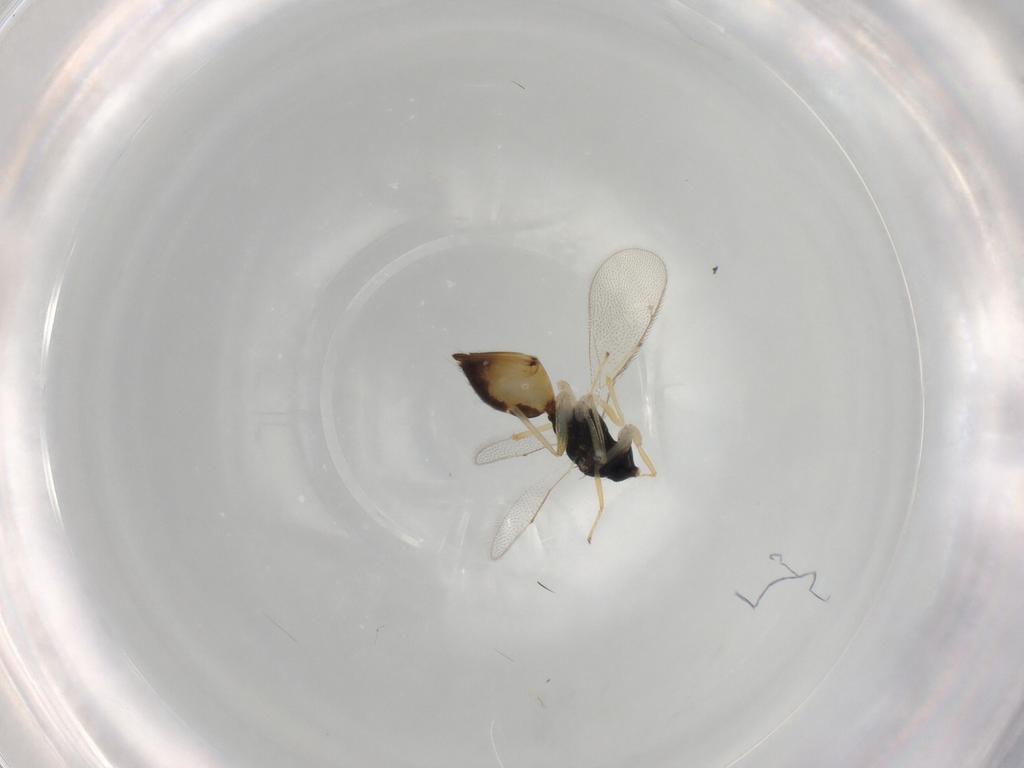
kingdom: Animalia
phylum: Arthropoda
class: Insecta
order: Hymenoptera
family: Eulophidae
